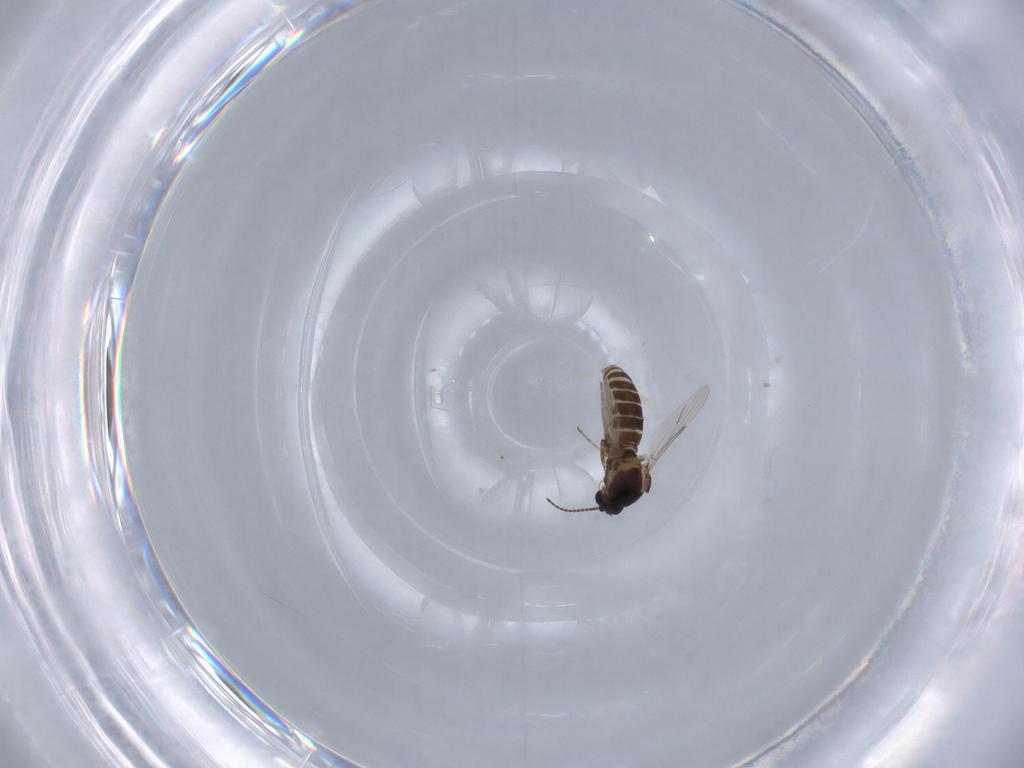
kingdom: Animalia
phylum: Arthropoda
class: Insecta
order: Diptera
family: Ceratopogonidae
